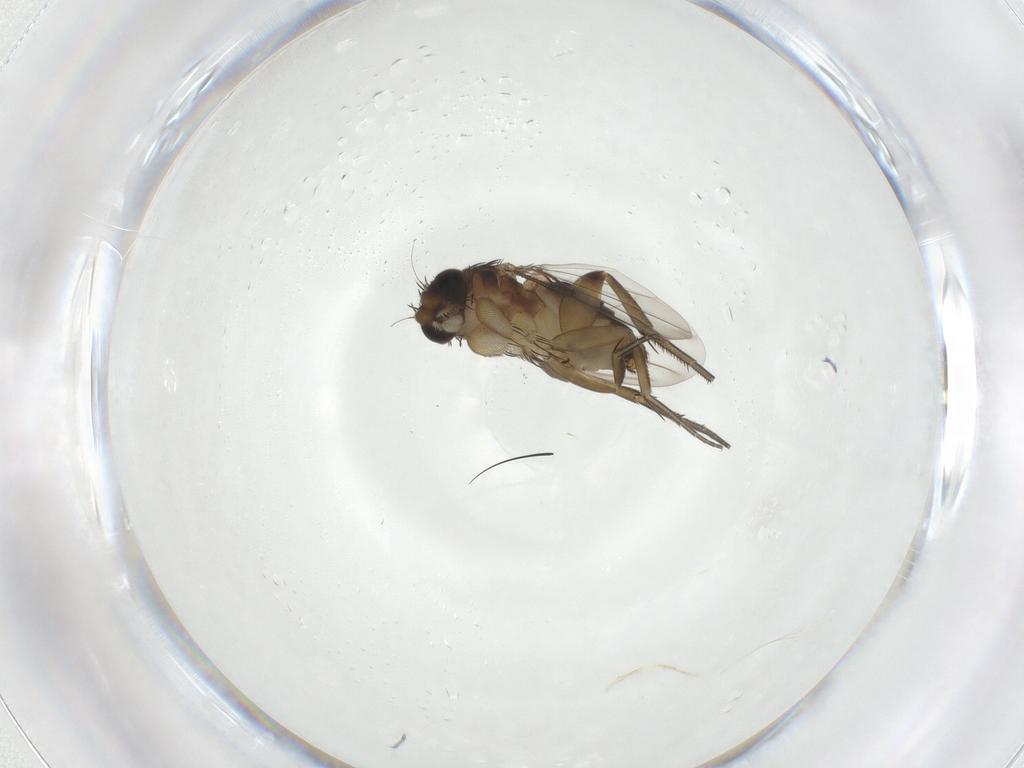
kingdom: Animalia
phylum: Arthropoda
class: Insecta
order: Diptera
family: Phoridae
